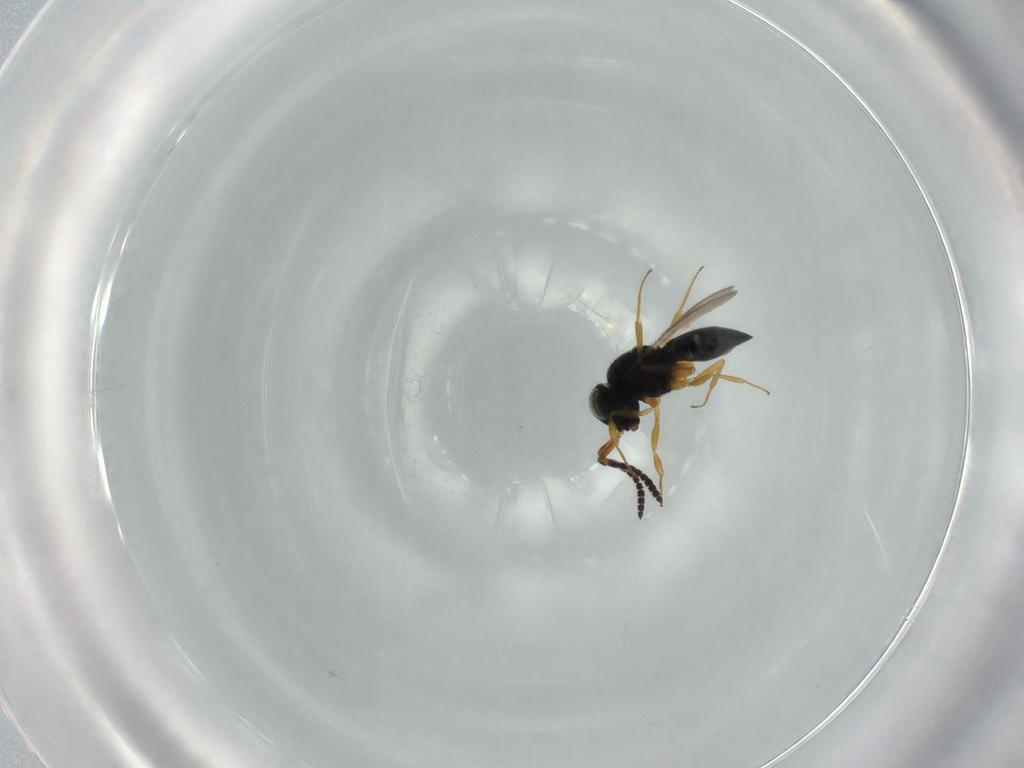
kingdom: Animalia
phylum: Arthropoda
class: Insecta
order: Hymenoptera
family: Scelionidae
